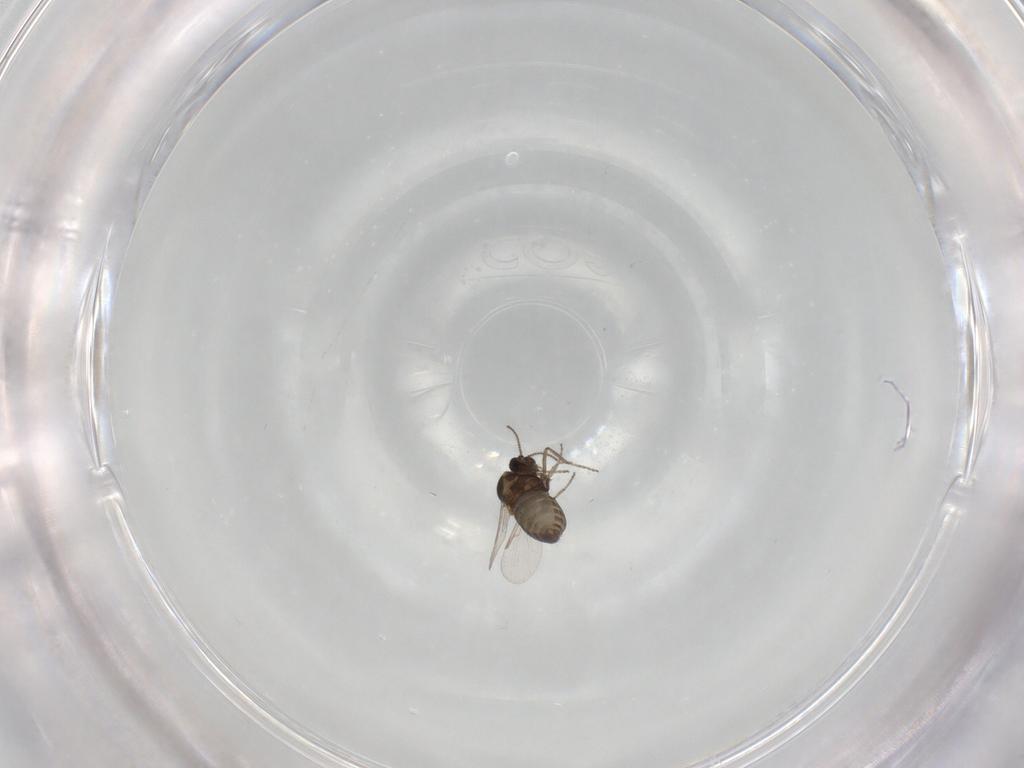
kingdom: Animalia
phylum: Arthropoda
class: Insecta
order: Diptera
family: Ceratopogonidae
